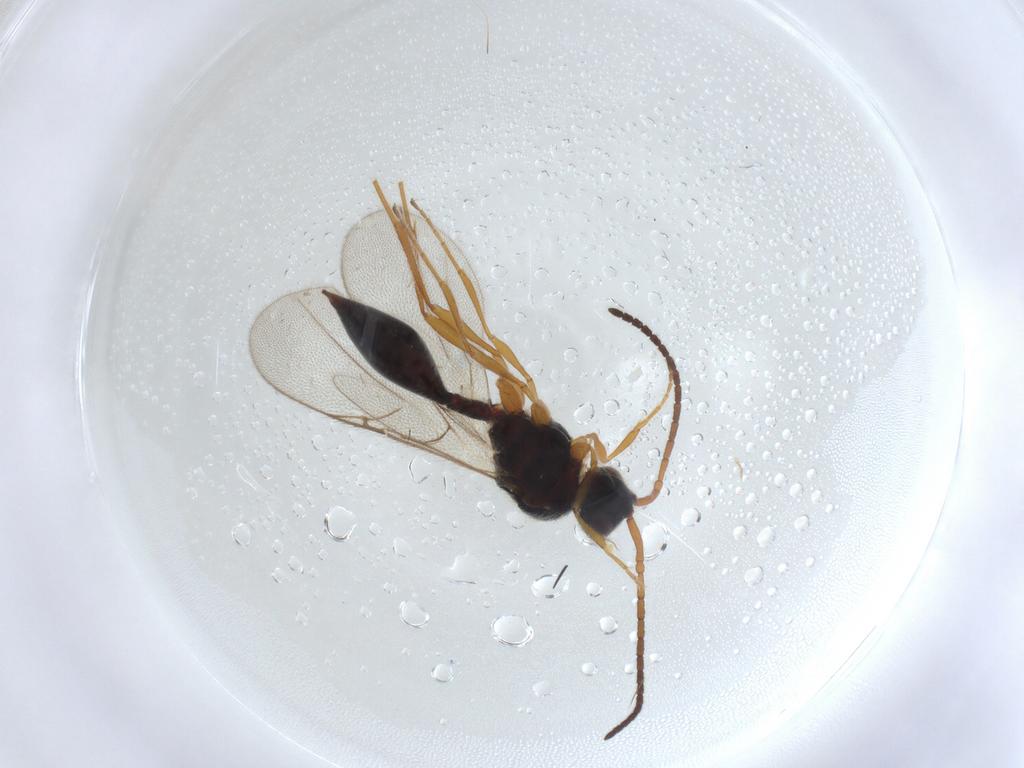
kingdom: Animalia
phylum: Arthropoda
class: Insecta
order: Hymenoptera
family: Diapriidae
